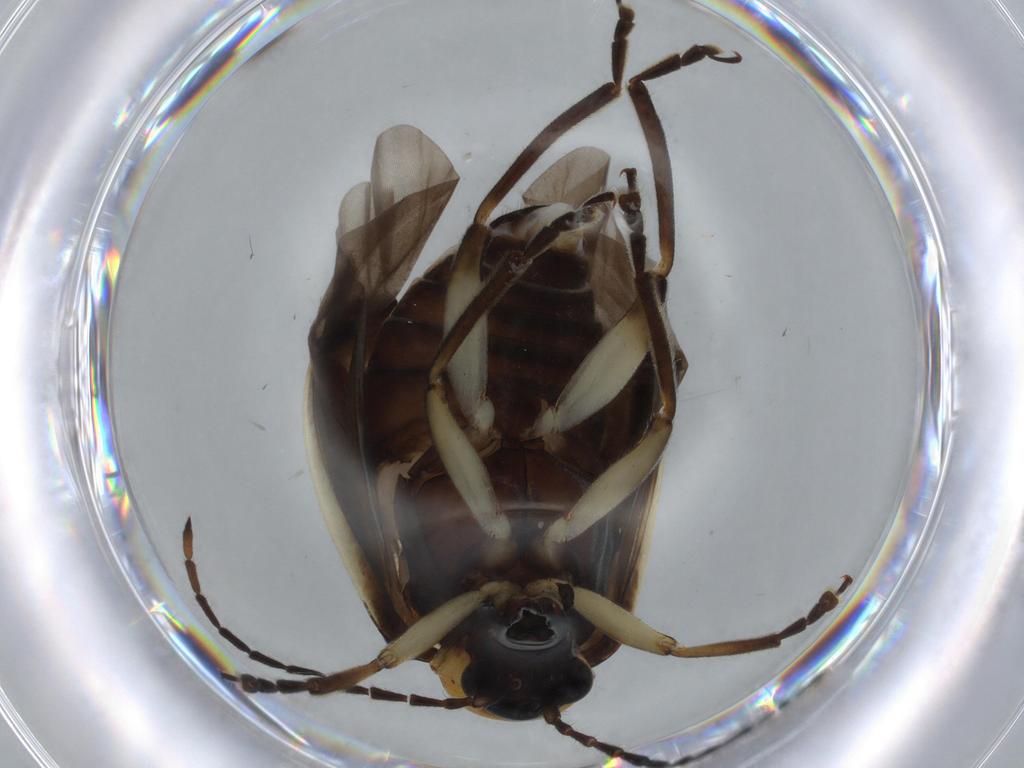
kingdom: Animalia
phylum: Arthropoda
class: Insecta
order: Coleoptera
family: Chrysomelidae
